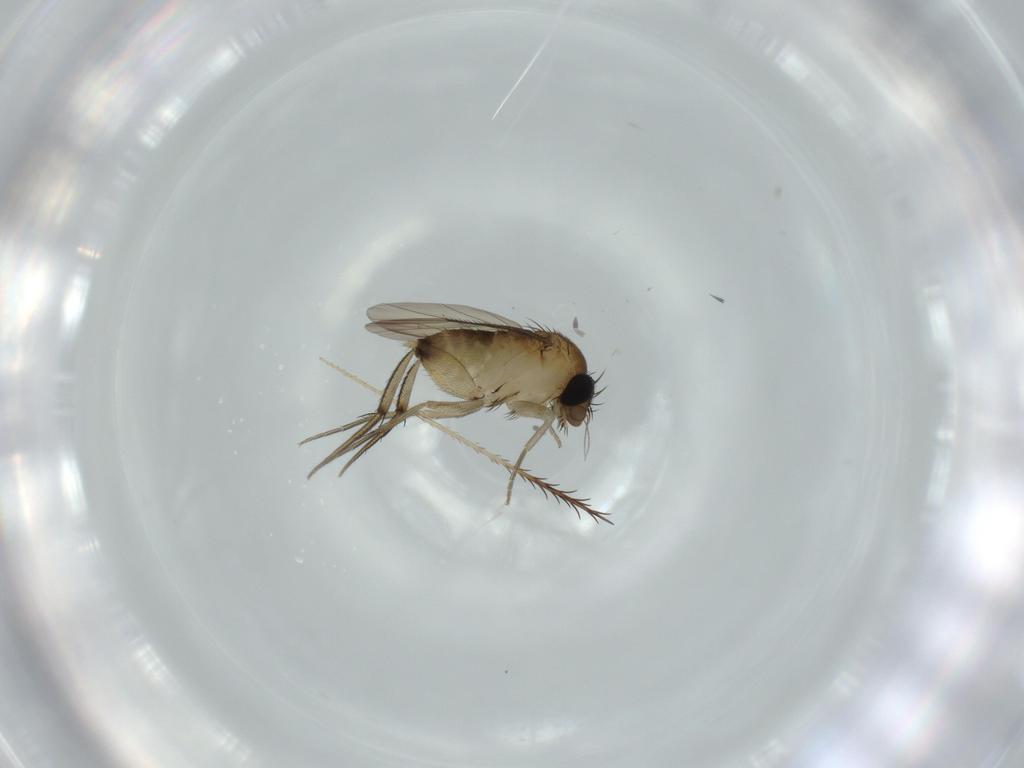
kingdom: Animalia
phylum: Arthropoda
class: Insecta
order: Diptera
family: Phoridae
